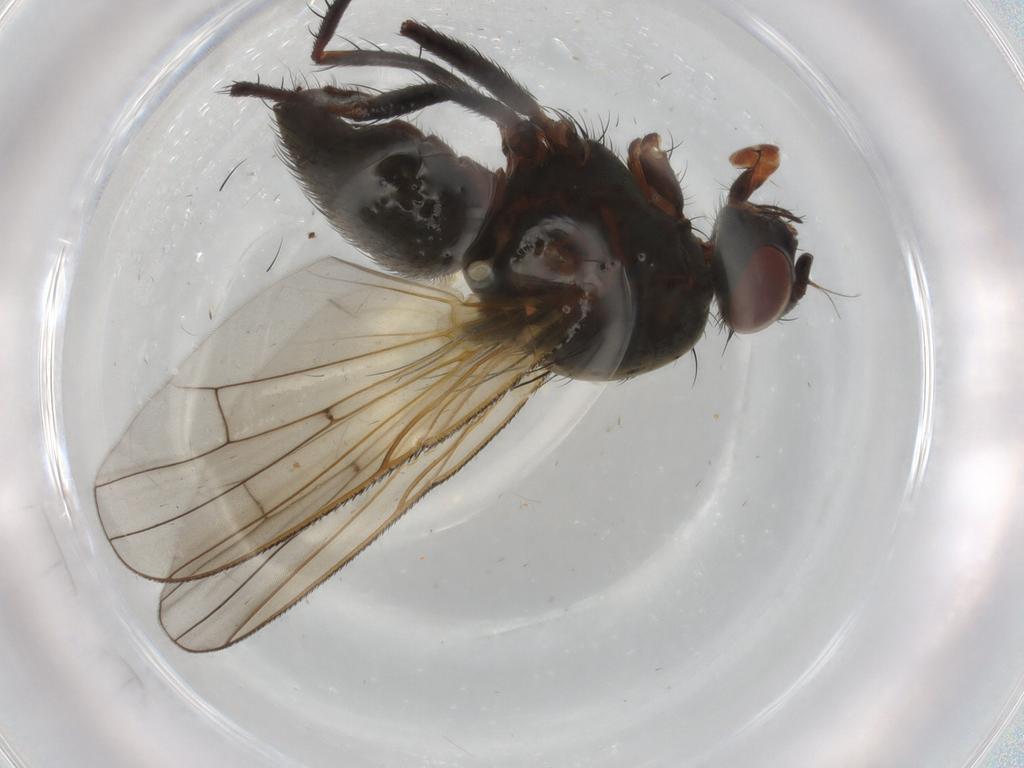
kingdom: Animalia
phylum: Arthropoda
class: Insecta
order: Diptera
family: Anthomyiidae
